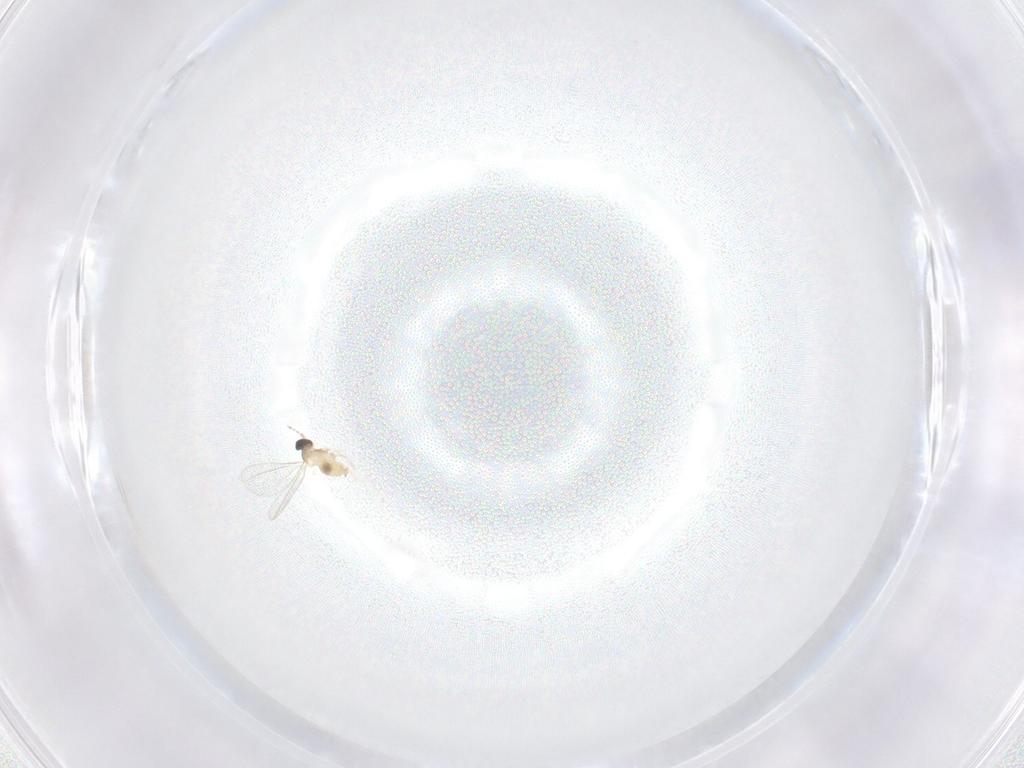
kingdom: Animalia
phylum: Arthropoda
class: Insecta
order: Diptera
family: Cecidomyiidae
